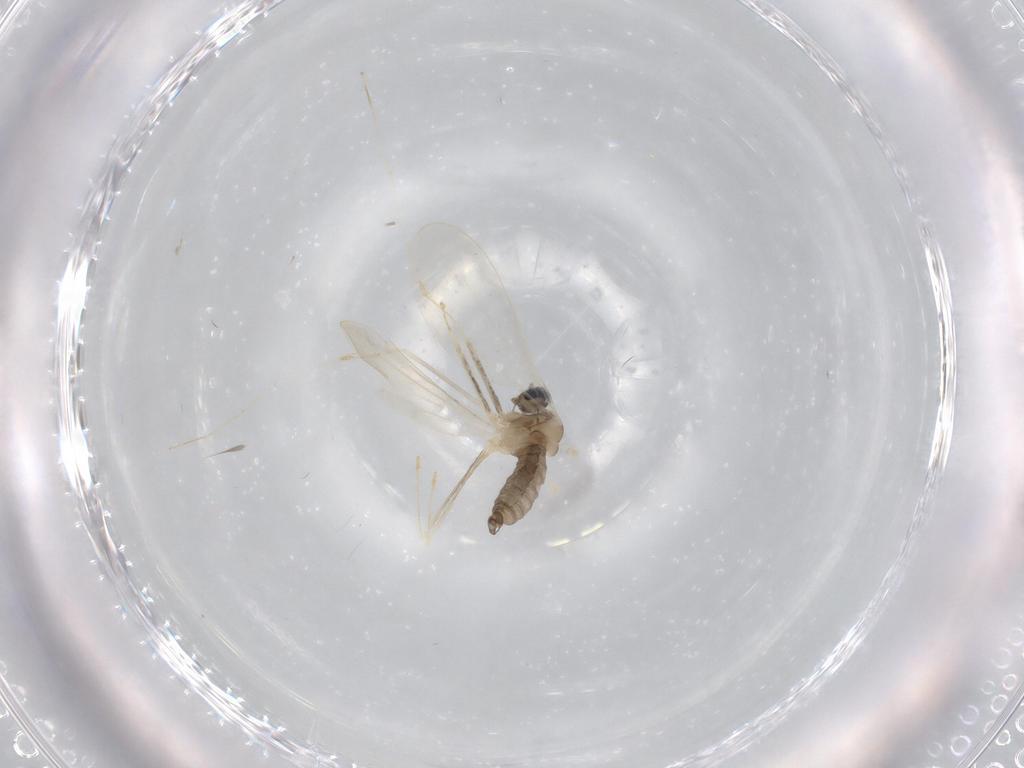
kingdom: Animalia
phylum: Arthropoda
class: Insecta
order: Diptera
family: Cecidomyiidae
